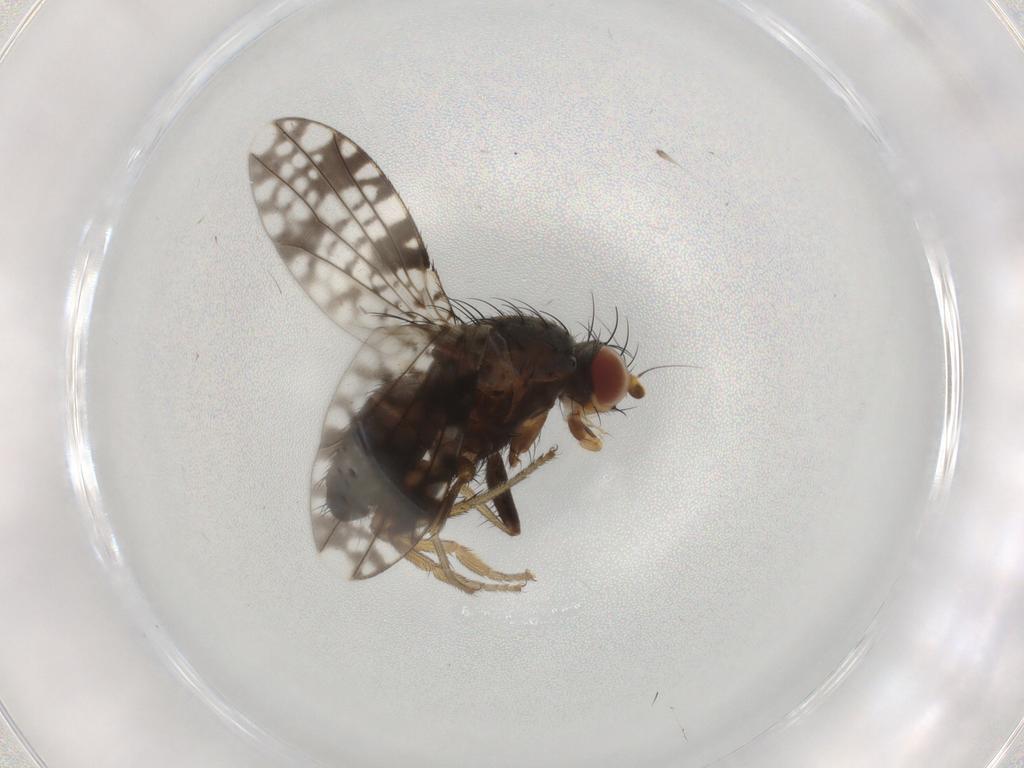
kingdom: Animalia
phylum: Arthropoda
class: Insecta
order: Diptera
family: Tephritidae
